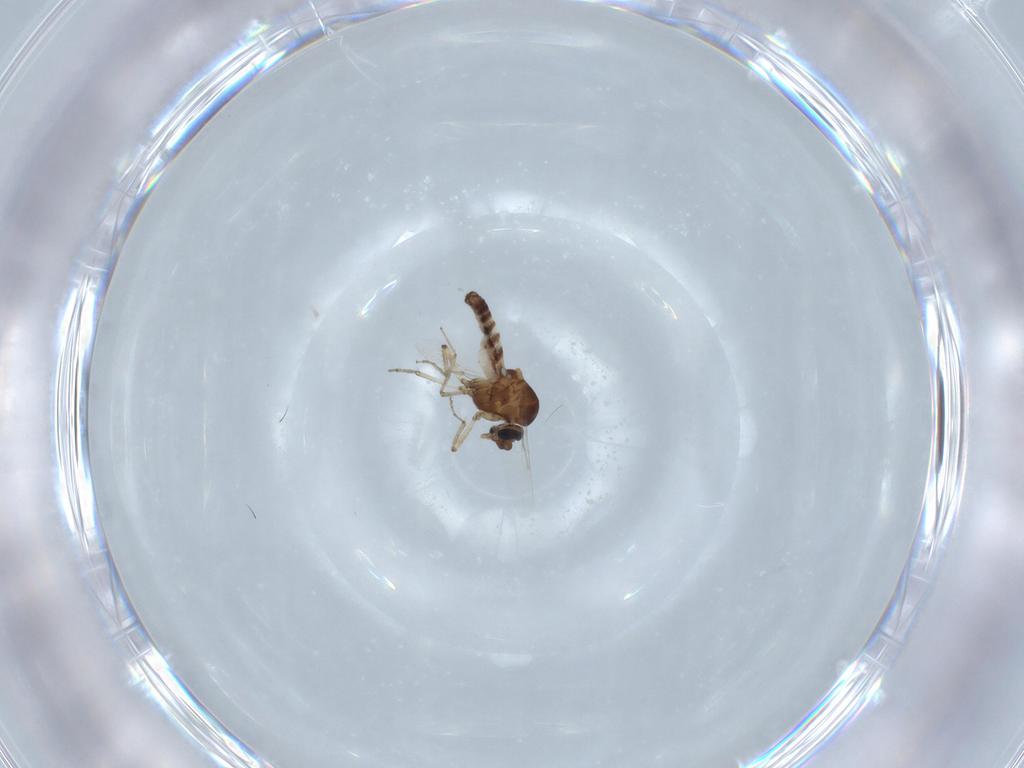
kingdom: Animalia
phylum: Arthropoda
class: Insecta
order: Diptera
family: Ceratopogonidae
